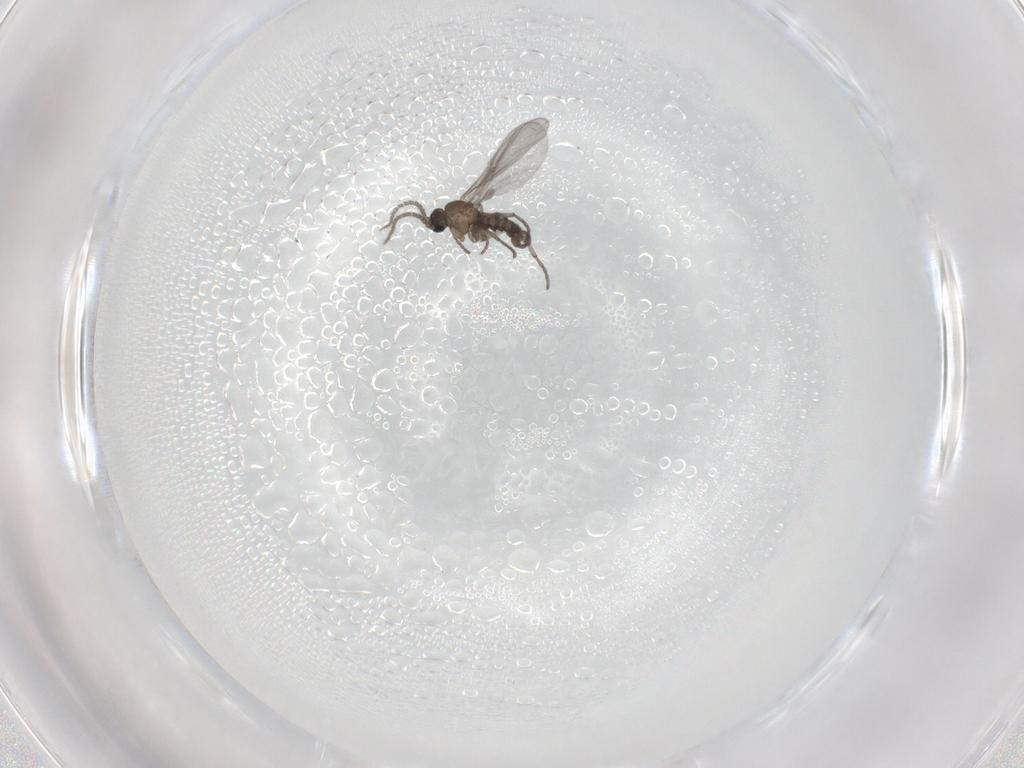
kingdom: Animalia
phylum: Arthropoda
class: Insecta
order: Diptera
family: Sciaridae
